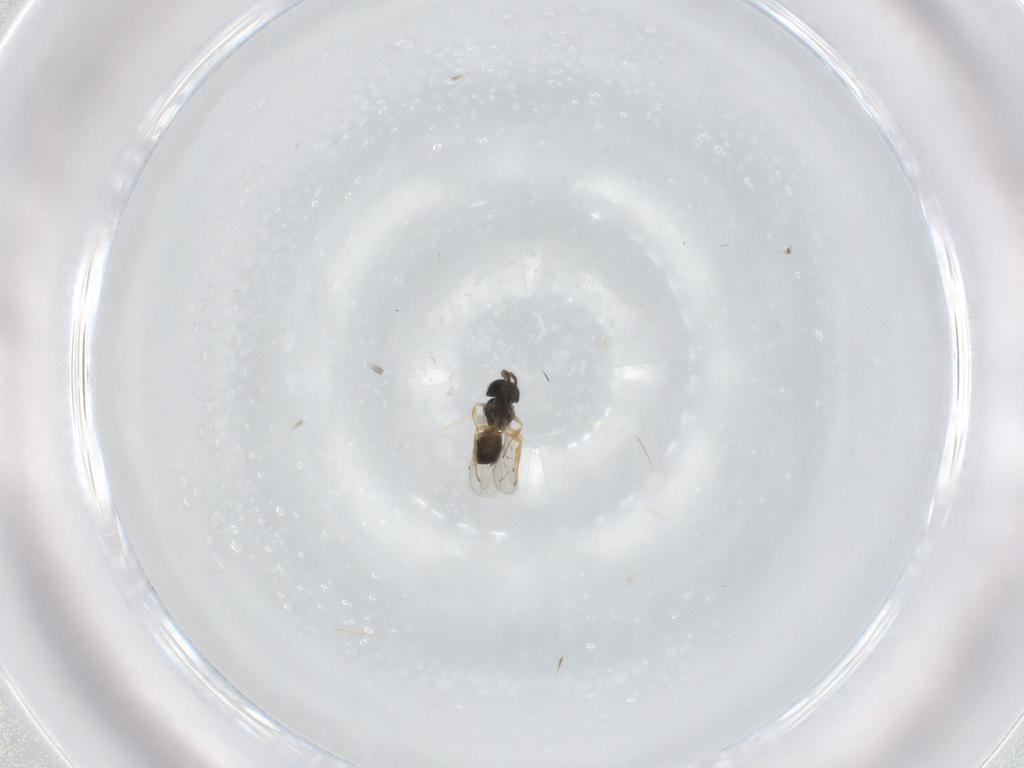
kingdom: Animalia
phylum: Arthropoda
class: Insecta
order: Hymenoptera
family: Scelionidae
